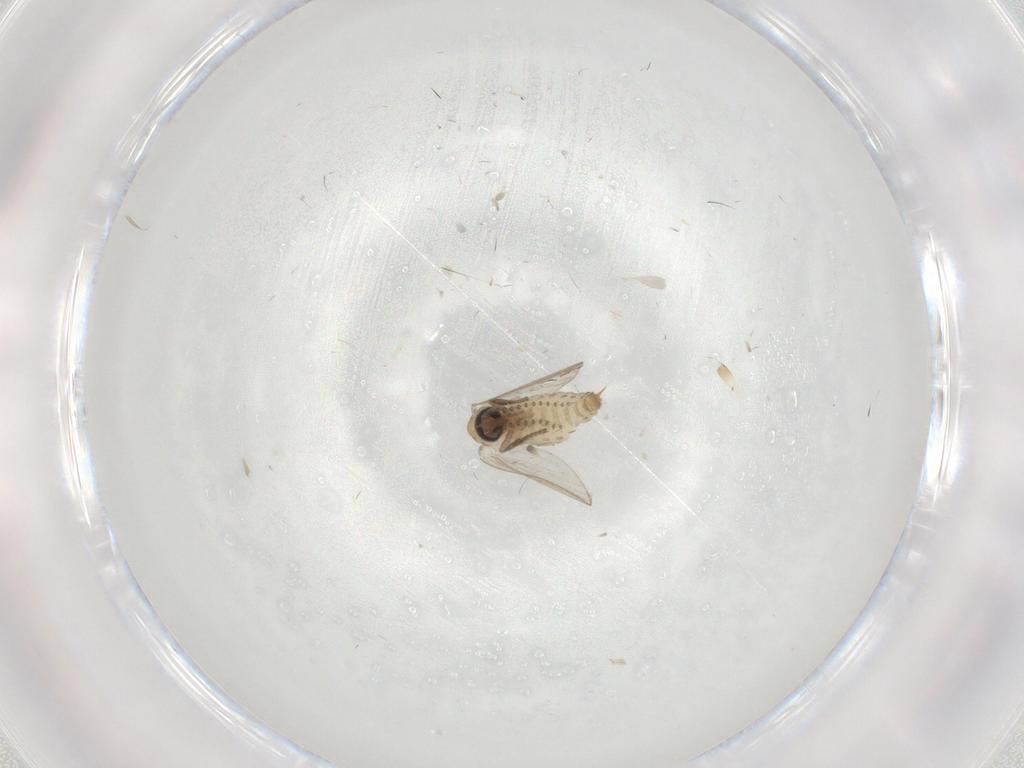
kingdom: Animalia
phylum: Arthropoda
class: Insecta
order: Diptera
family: Psychodidae
